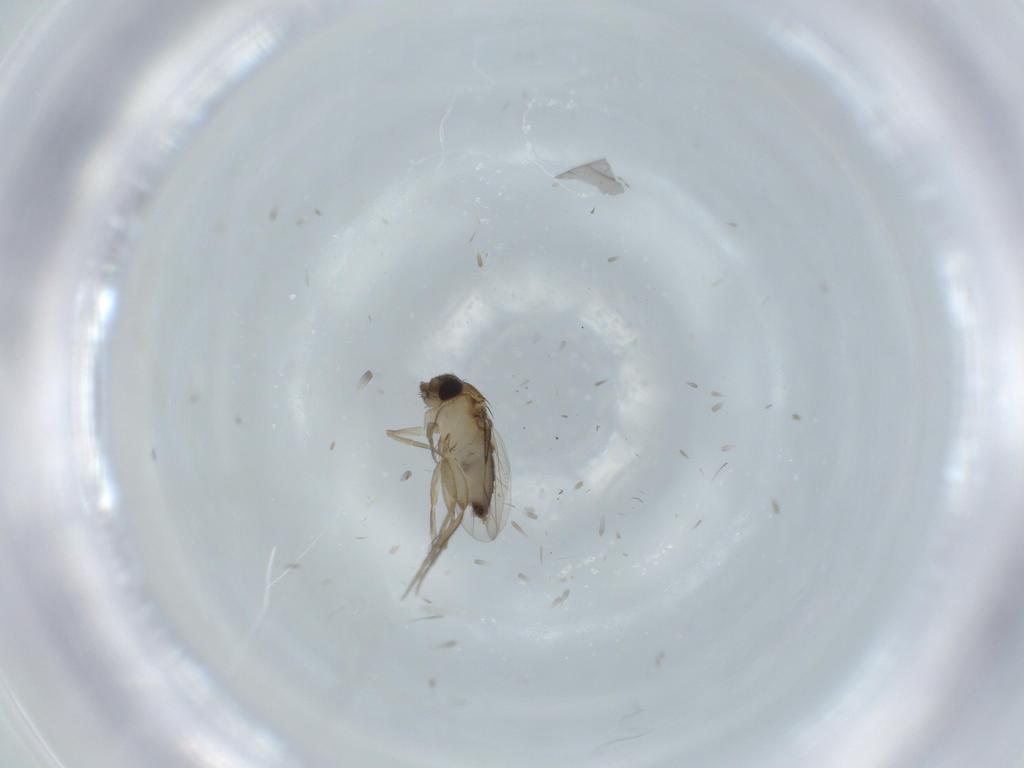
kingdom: Animalia
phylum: Arthropoda
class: Insecta
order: Diptera
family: Phoridae
